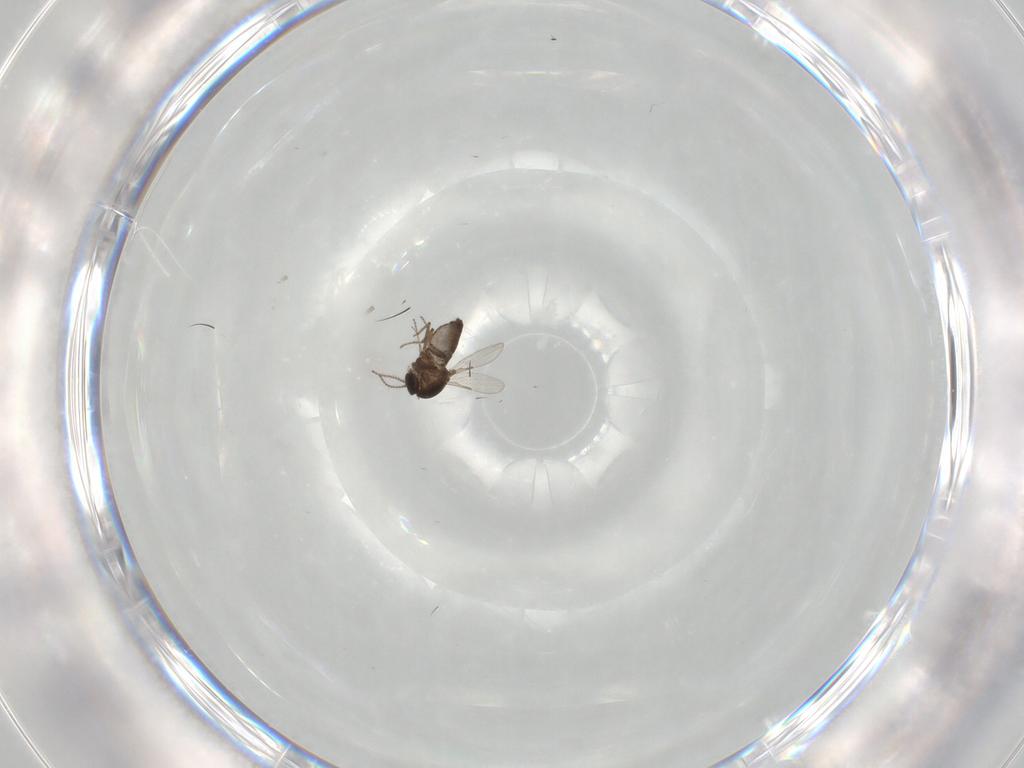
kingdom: Animalia
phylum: Arthropoda
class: Insecta
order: Diptera
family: Ceratopogonidae
